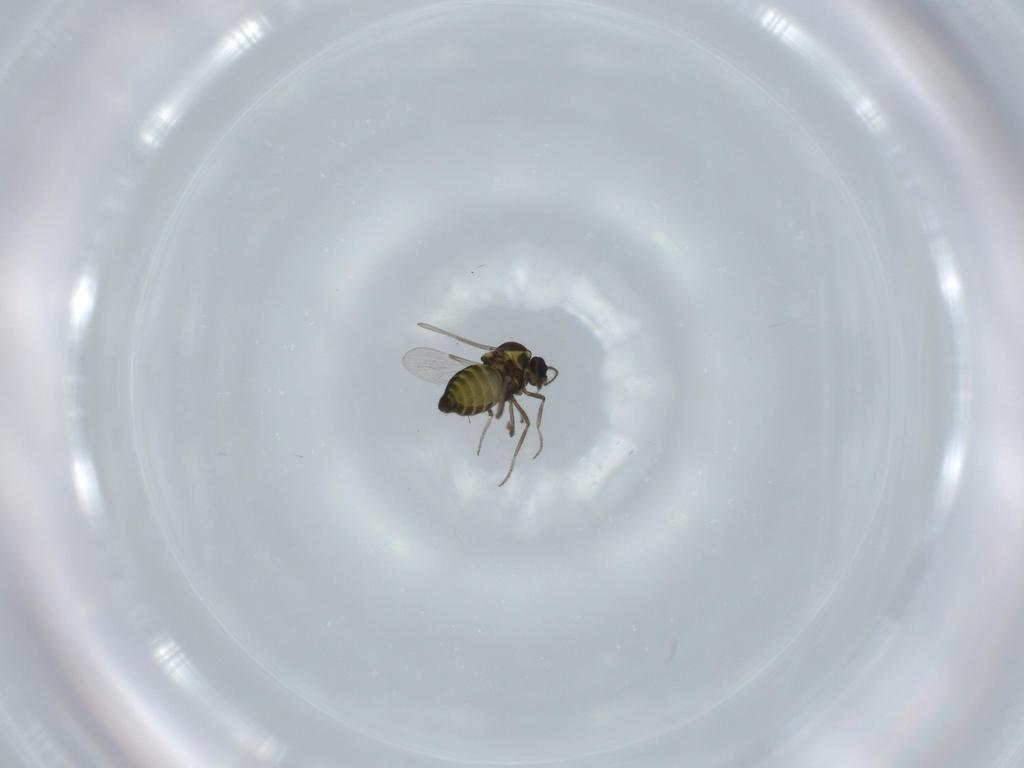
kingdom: Animalia
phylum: Arthropoda
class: Insecta
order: Diptera
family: Ceratopogonidae
